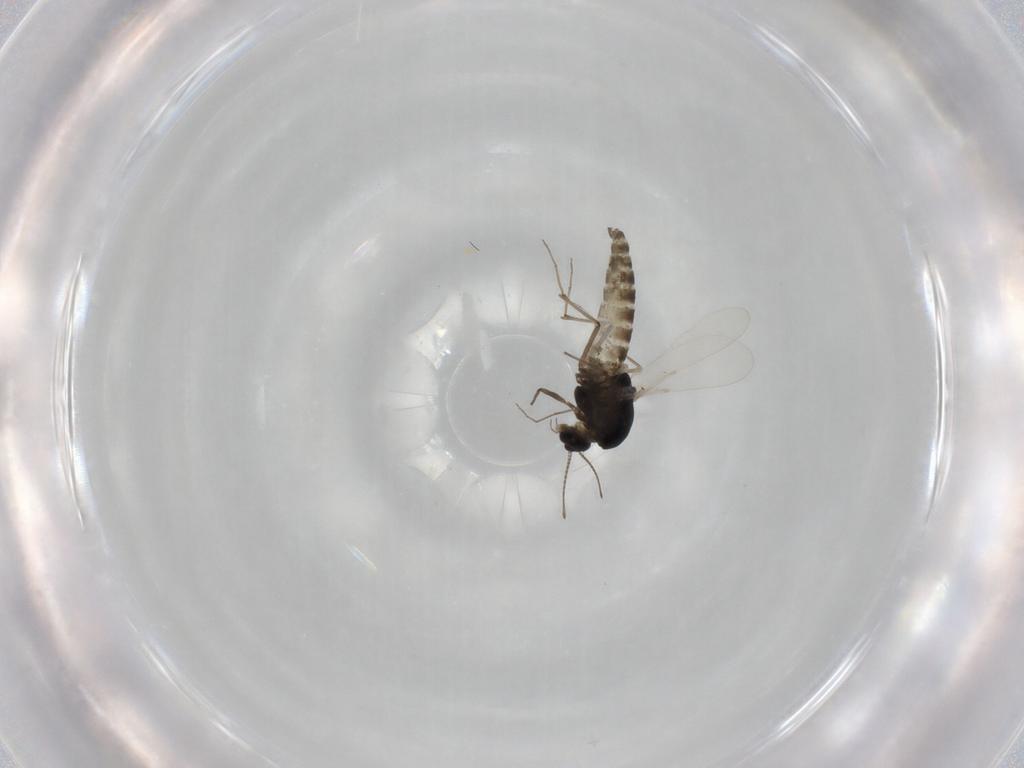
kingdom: Animalia
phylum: Arthropoda
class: Insecta
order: Diptera
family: Chironomidae
